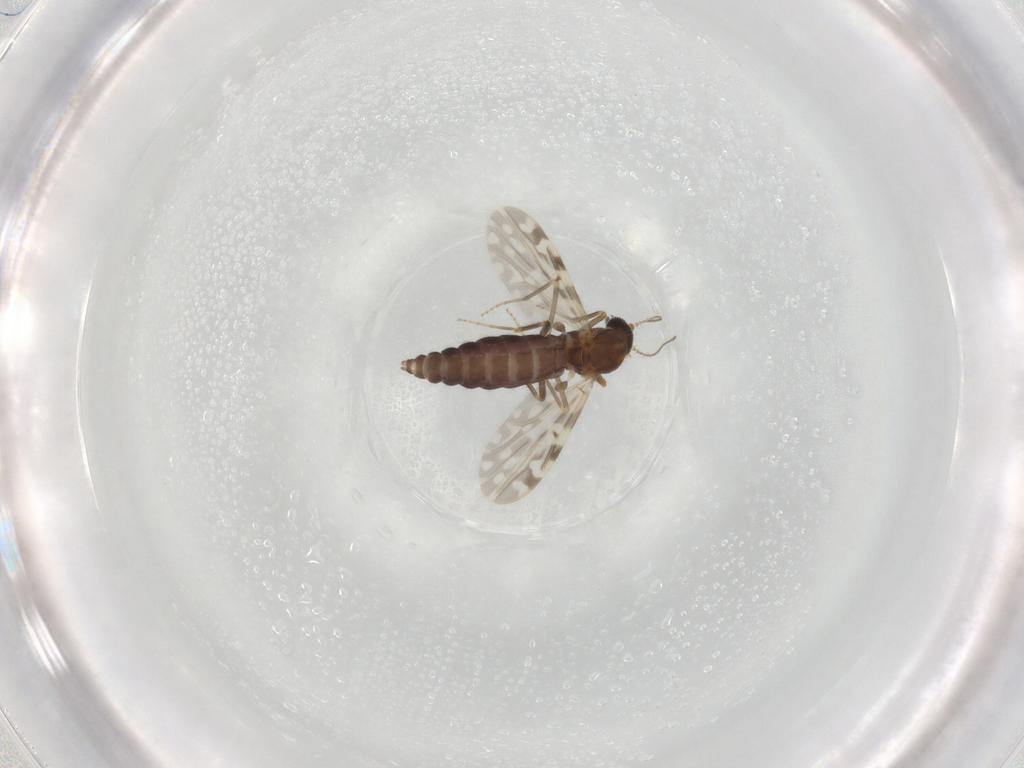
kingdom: Animalia
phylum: Arthropoda
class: Insecta
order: Diptera
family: Ceratopogonidae
